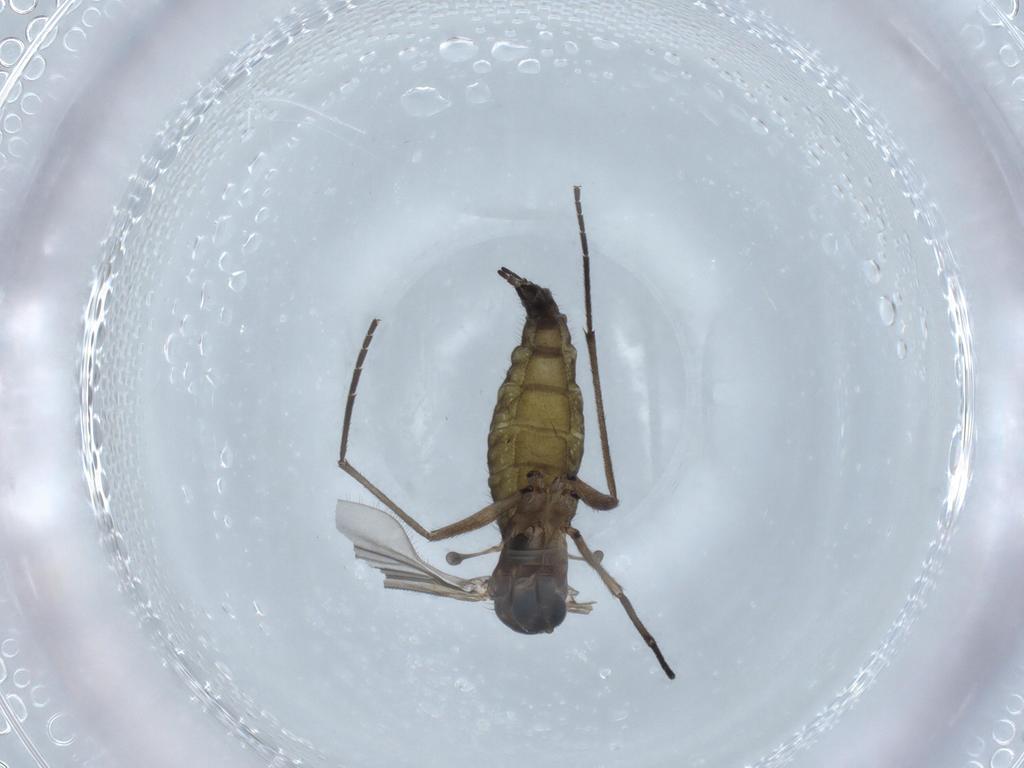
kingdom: Animalia
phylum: Arthropoda
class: Insecta
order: Diptera
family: Sciaridae
